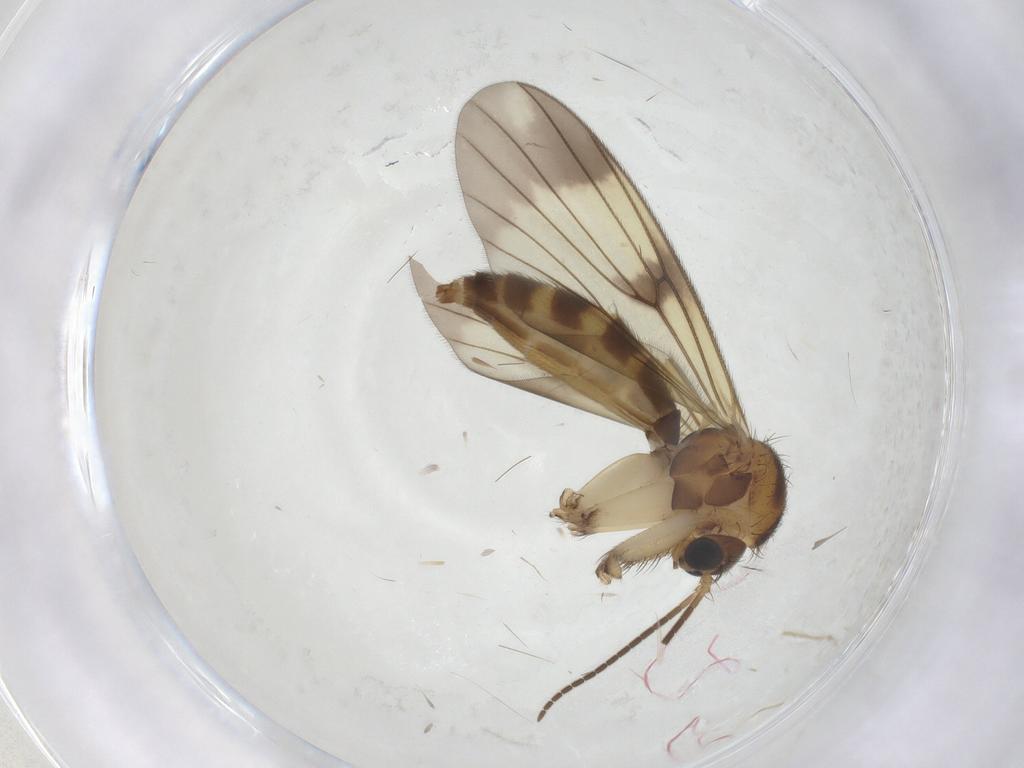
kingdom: Animalia
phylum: Arthropoda
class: Insecta
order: Diptera
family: Mycetophilidae
